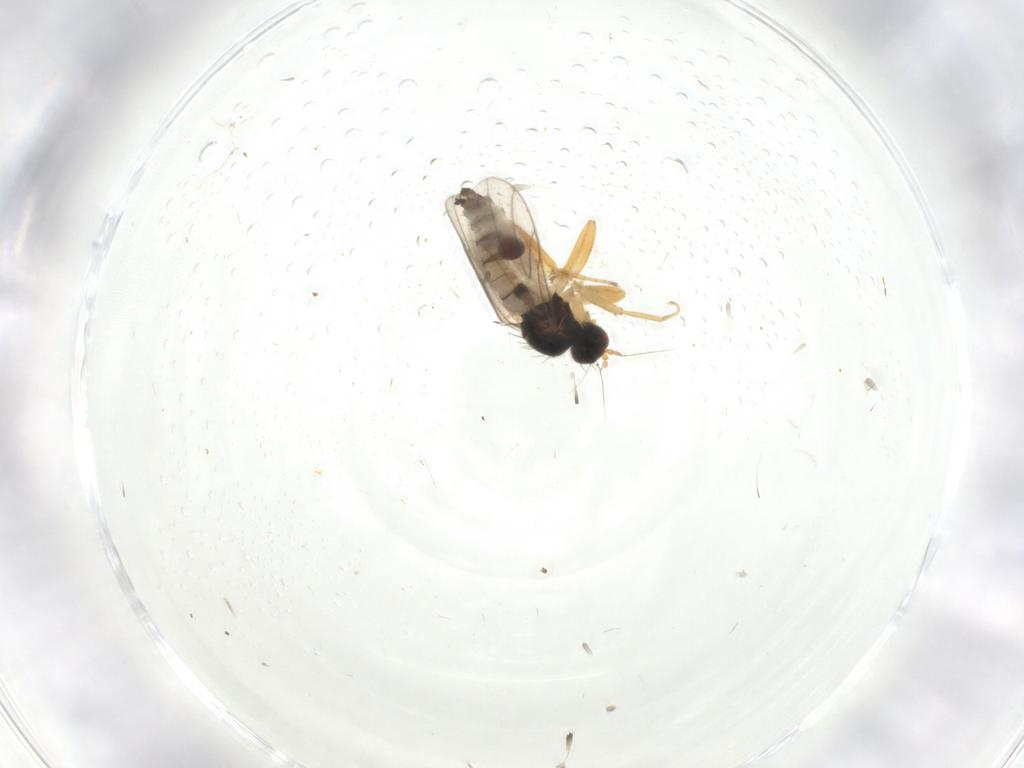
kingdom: Animalia
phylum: Arthropoda
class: Insecta
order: Diptera
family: Hybotidae
